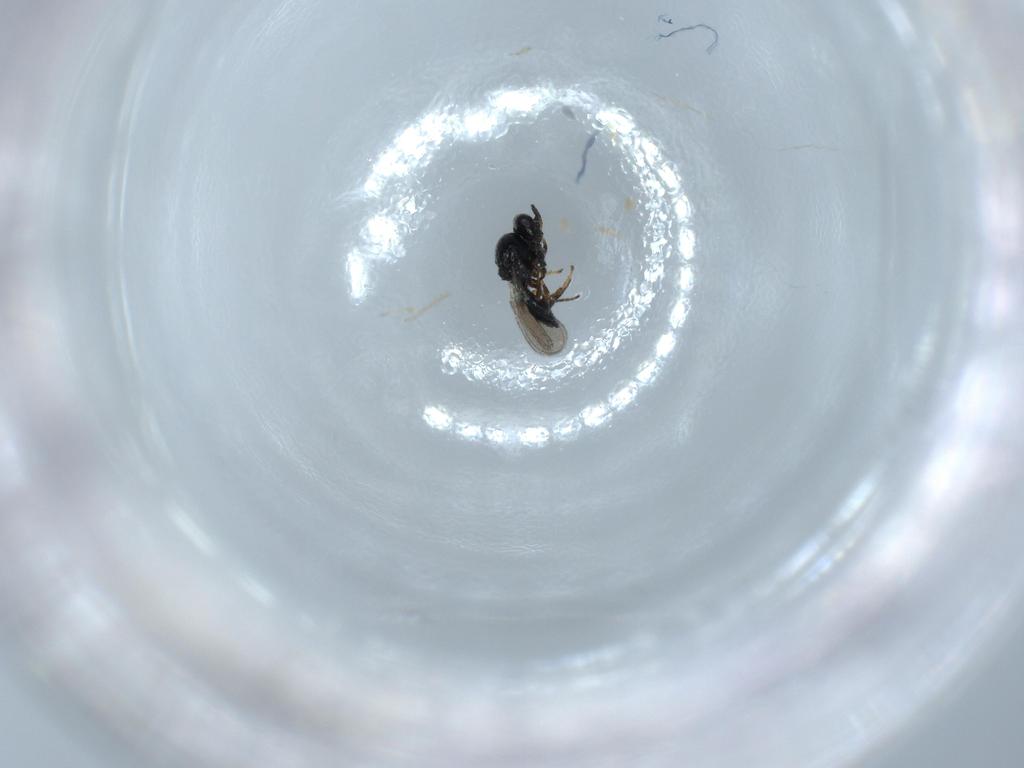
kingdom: Animalia
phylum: Arthropoda
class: Insecta
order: Hymenoptera
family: Platygastridae
